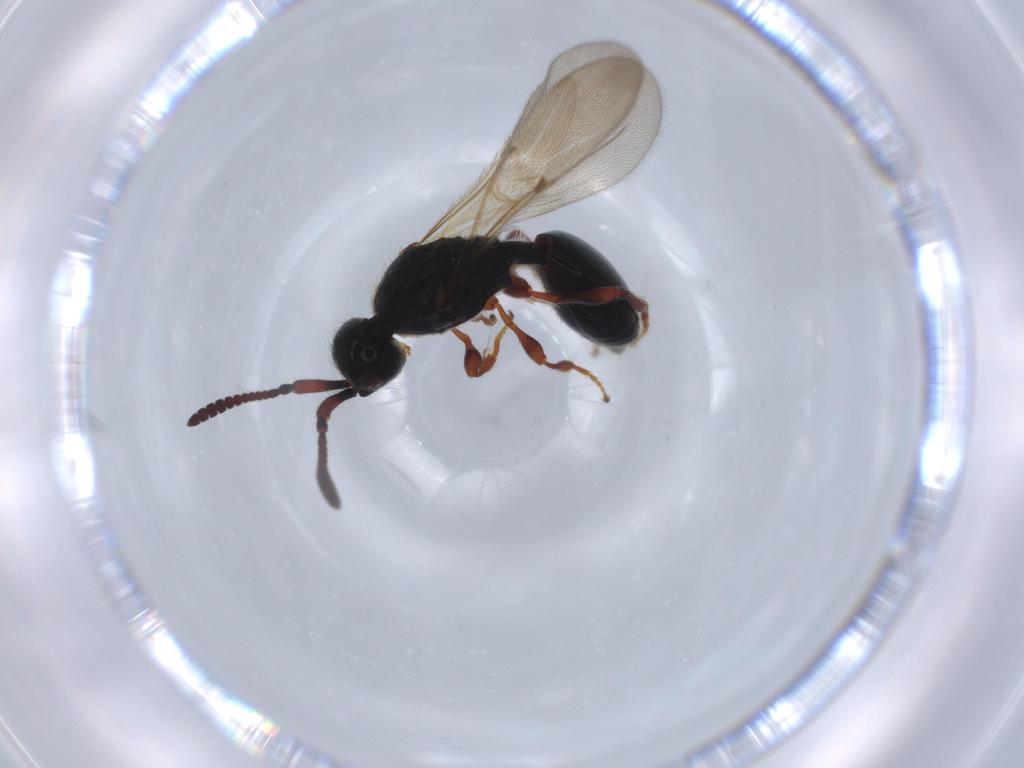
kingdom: Animalia
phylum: Arthropoda
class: Insecta
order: Hymenoptera
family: Diapriidae
